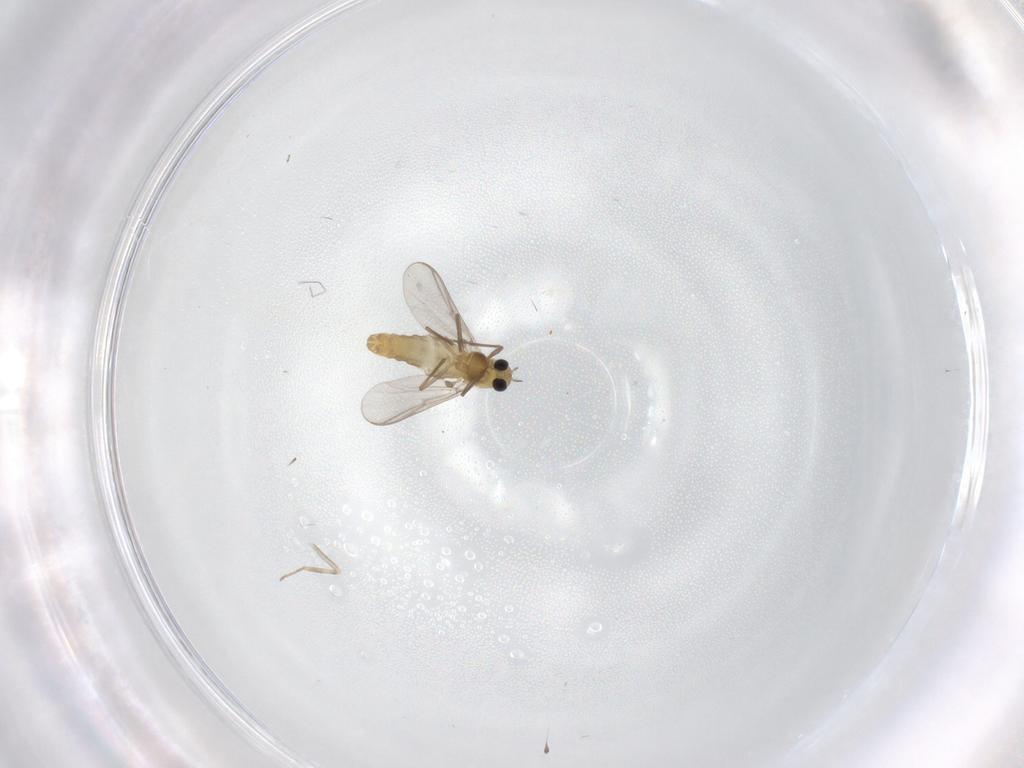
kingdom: Animalia
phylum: Arthropoda
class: Insecta
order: Diptera
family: Ceratopogonidae
